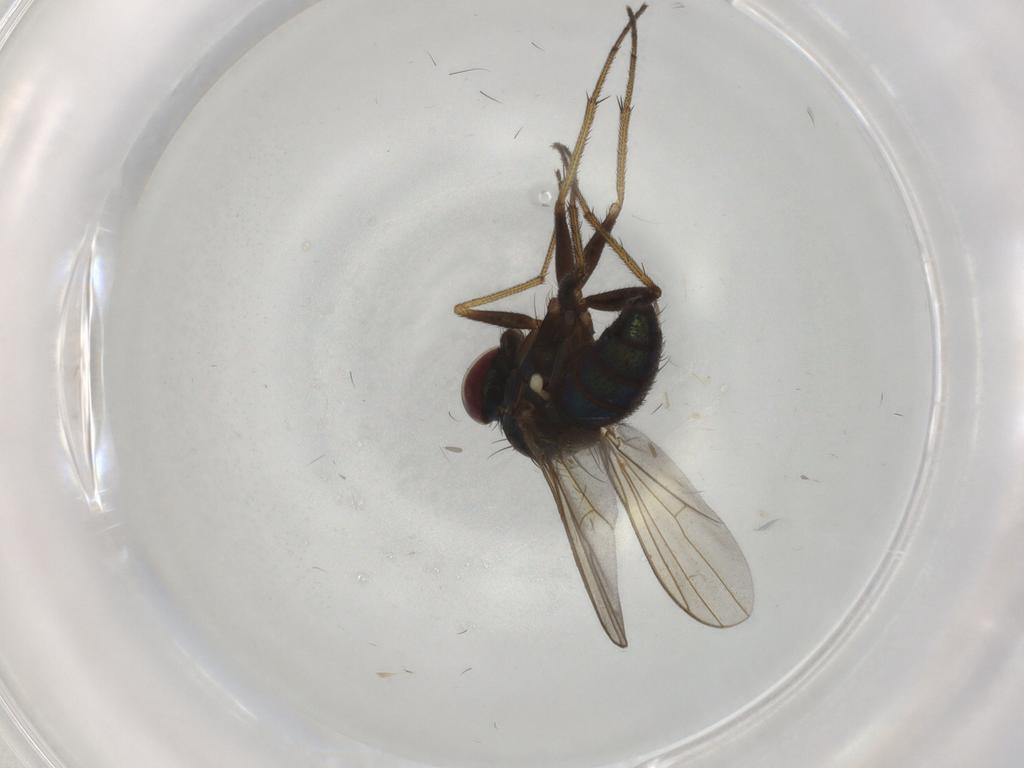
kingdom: Animalia
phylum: Arthropoda
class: Insecta
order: Diptera
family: Dolichopodidae
